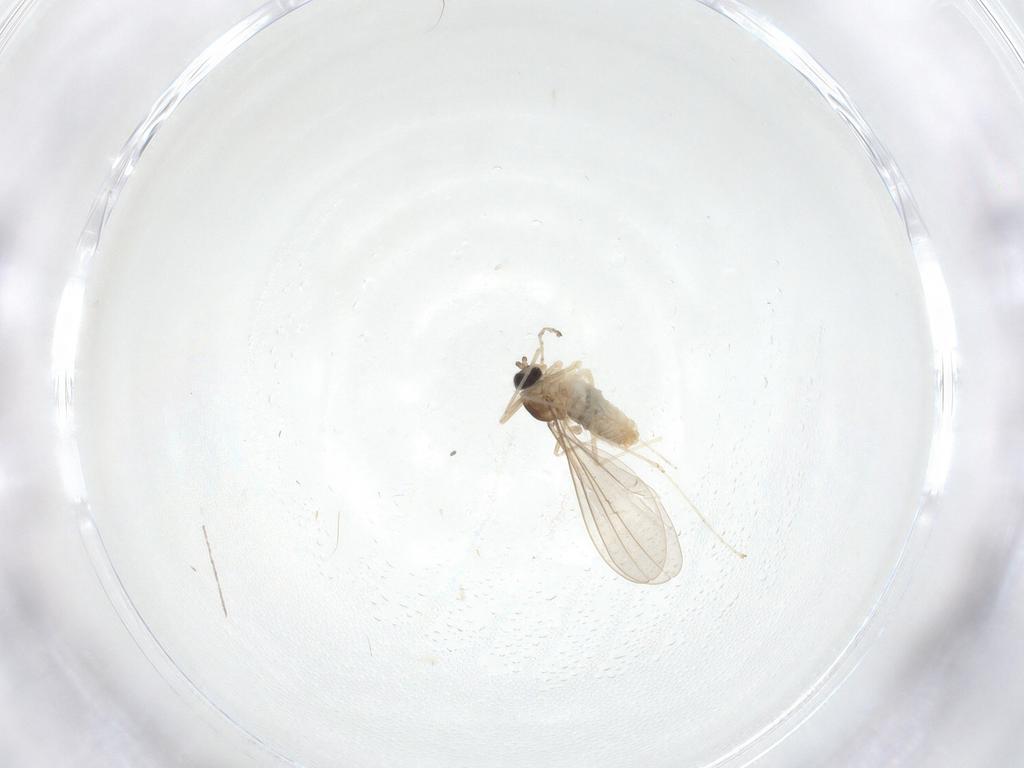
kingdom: Animalia
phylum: Arthropoda
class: Insecta
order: Diptera
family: Cecidomyiidae
